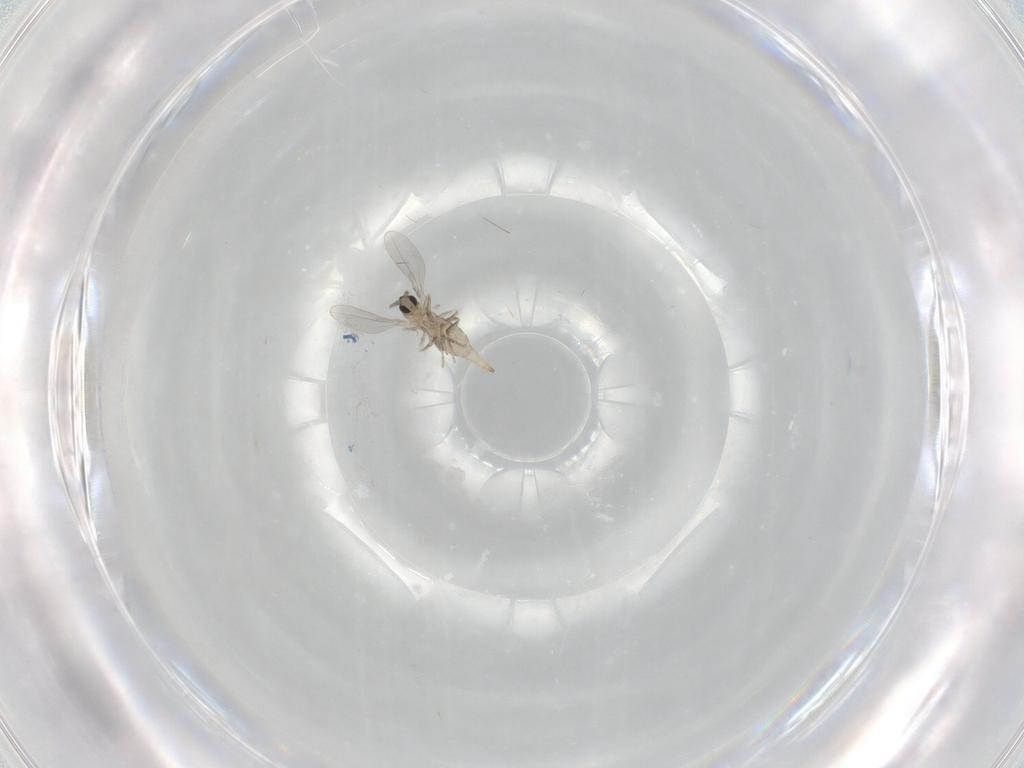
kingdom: Animalia
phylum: Arthropoda
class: Insecta
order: Diptera
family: Cecidomyiidae
